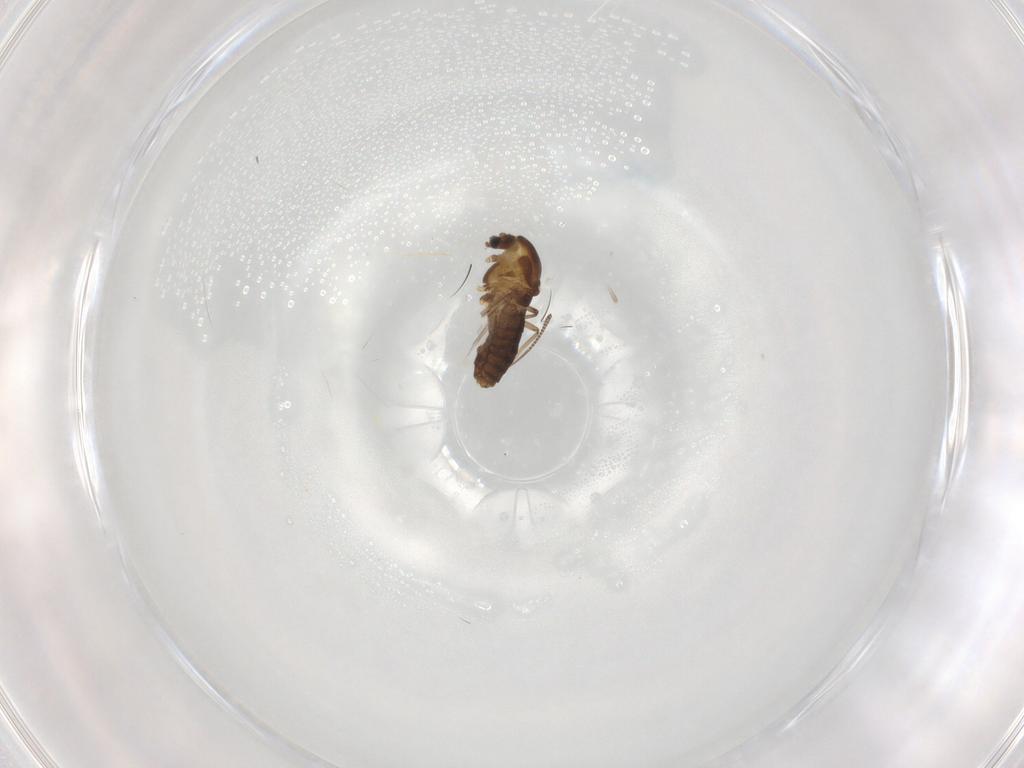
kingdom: Animalia
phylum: Arthropoda
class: Insecta
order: Diptera
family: Chironomidae
